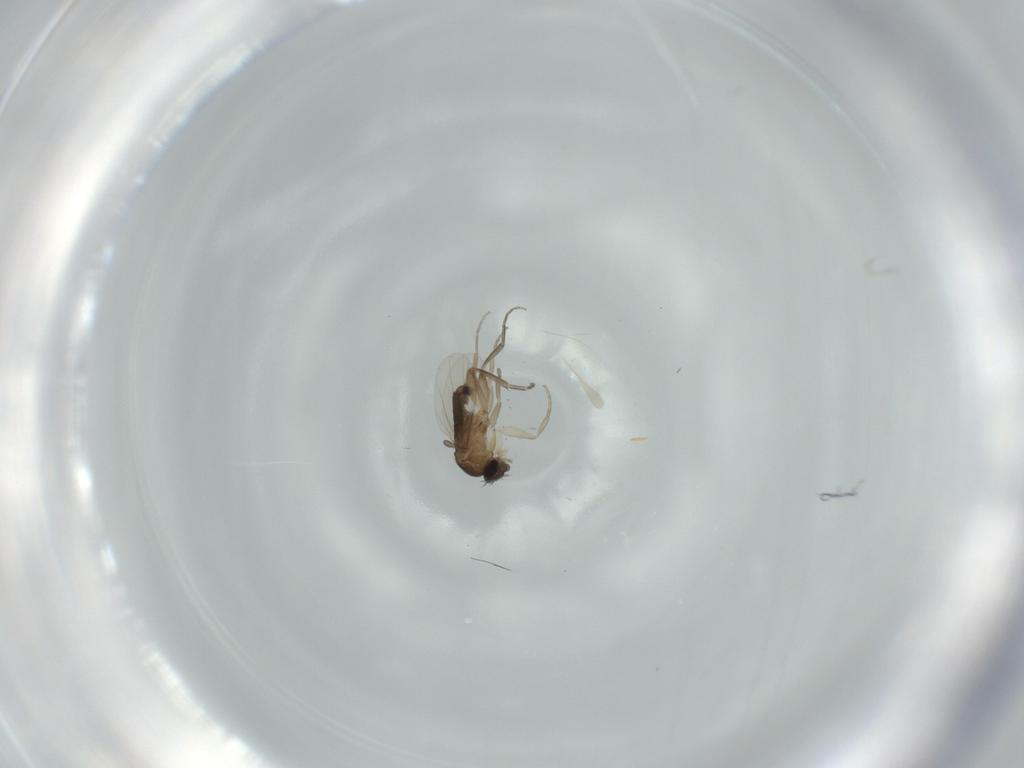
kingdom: Animalia
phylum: Arthropoda
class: Insecta
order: Diptera
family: Phoridae
